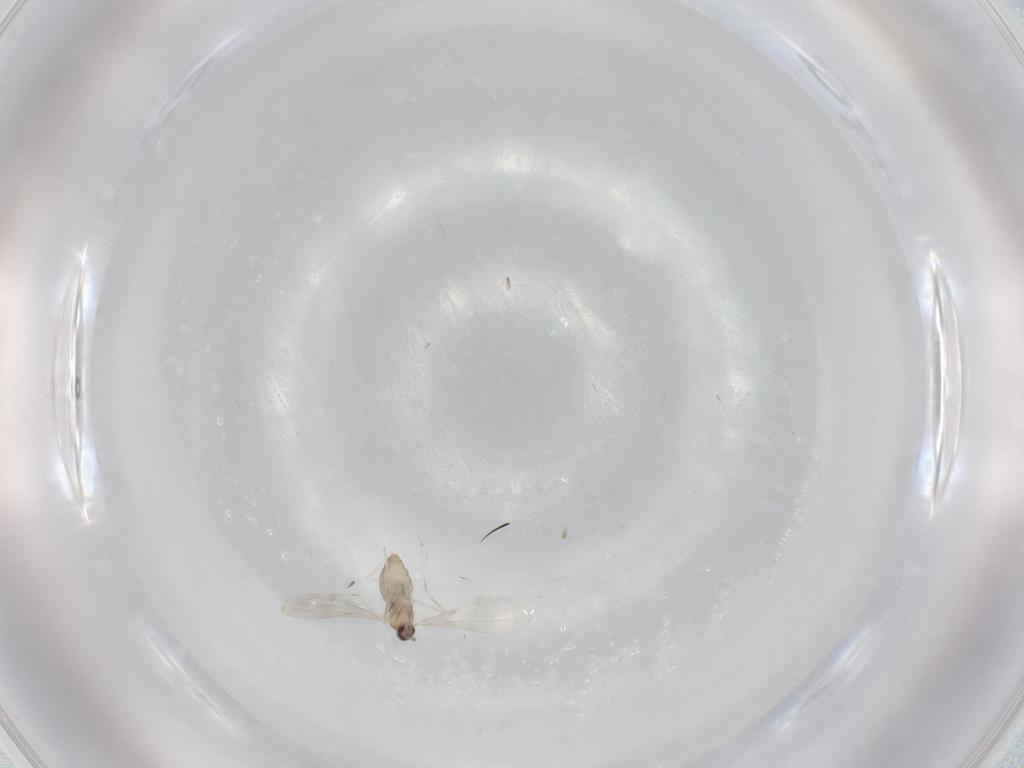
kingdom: Animalia
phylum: Arthropoda
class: Insecta
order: Diptera
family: Cecidomyiidae
